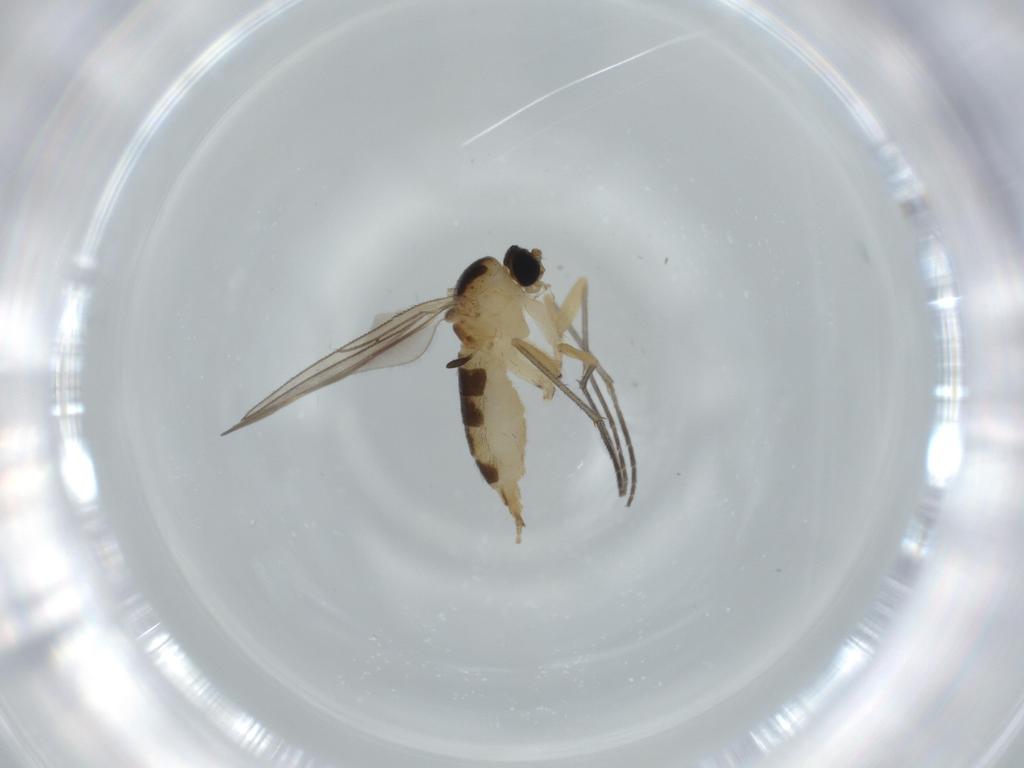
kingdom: Animalia
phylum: Arthropoda
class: Insecta
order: Diptera
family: Sciaridae
